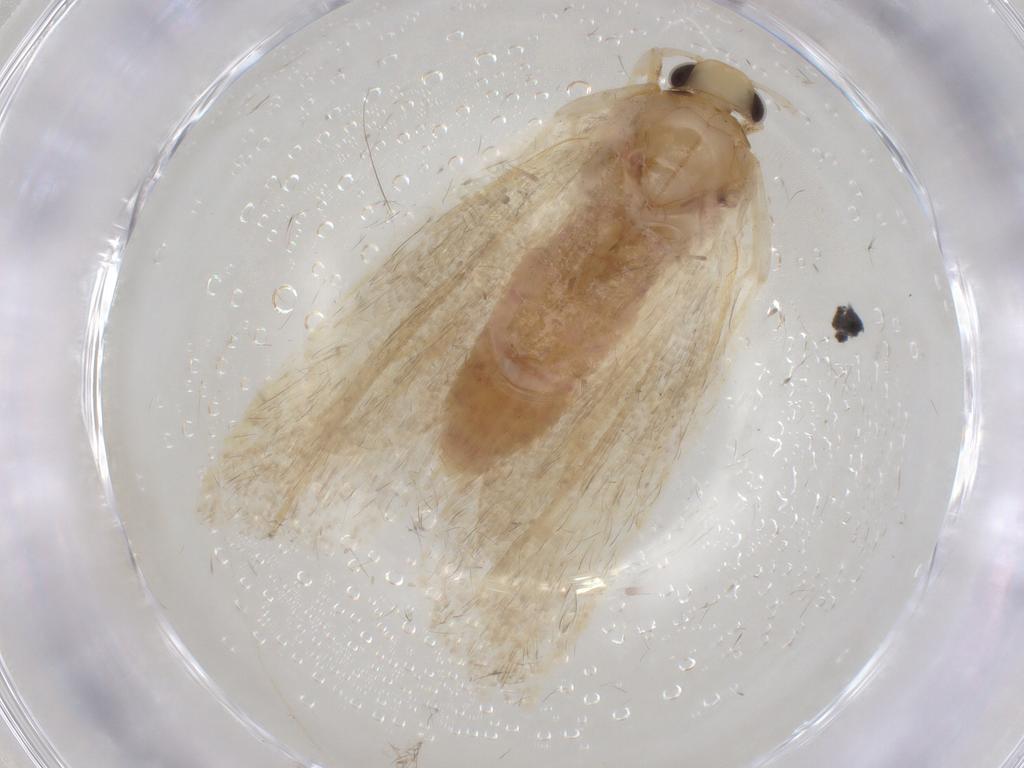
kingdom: Animalia
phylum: Arthropoda
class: Insecta
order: Lepidoptera
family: Lecithoceridae
